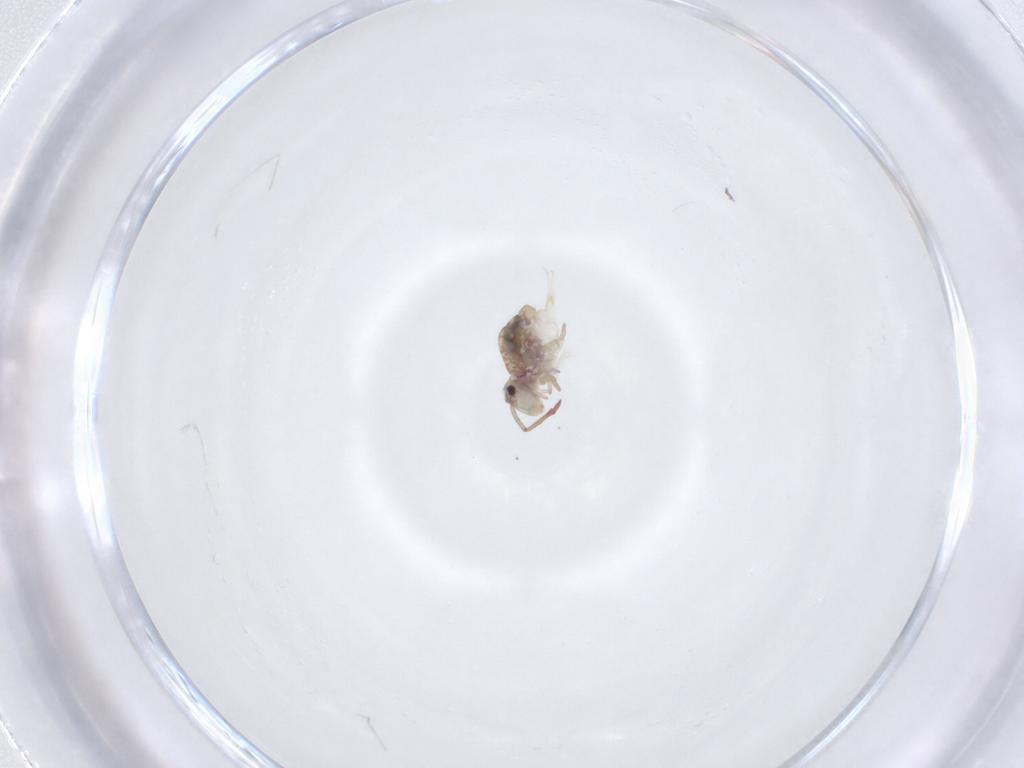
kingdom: Animalia
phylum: Arthropoda
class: Collembola
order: Symphypleona
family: Dicyrtomidae
